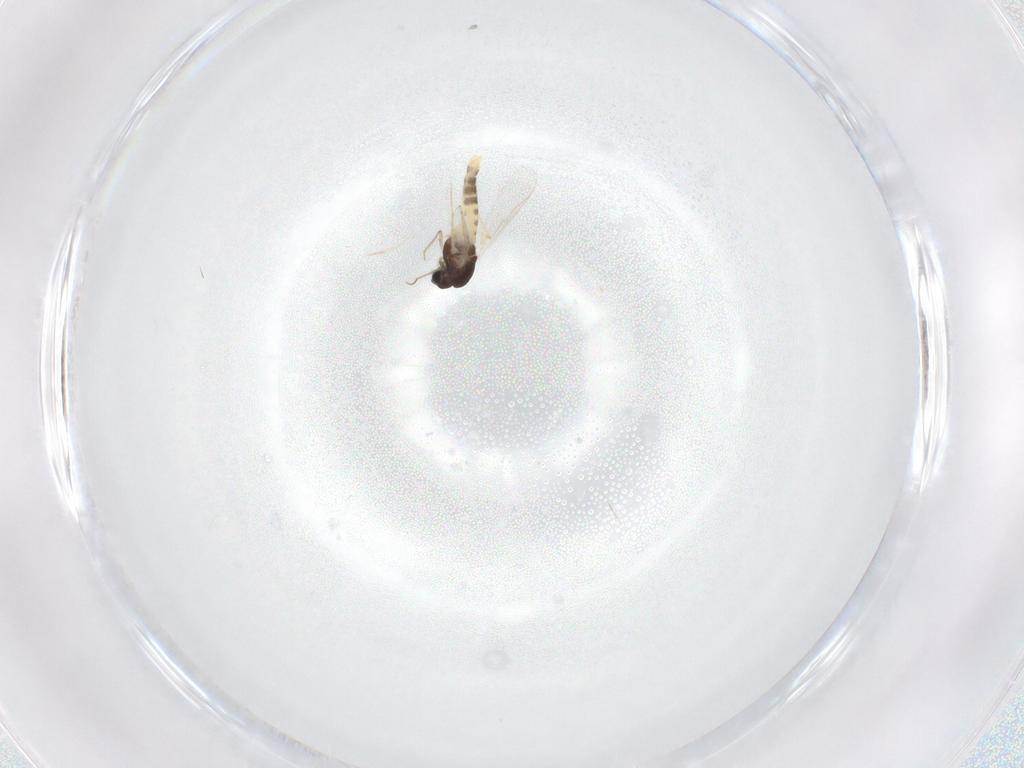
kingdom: Animalia
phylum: Arthropoda
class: Insecta
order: Diptera
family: Chironomidae
